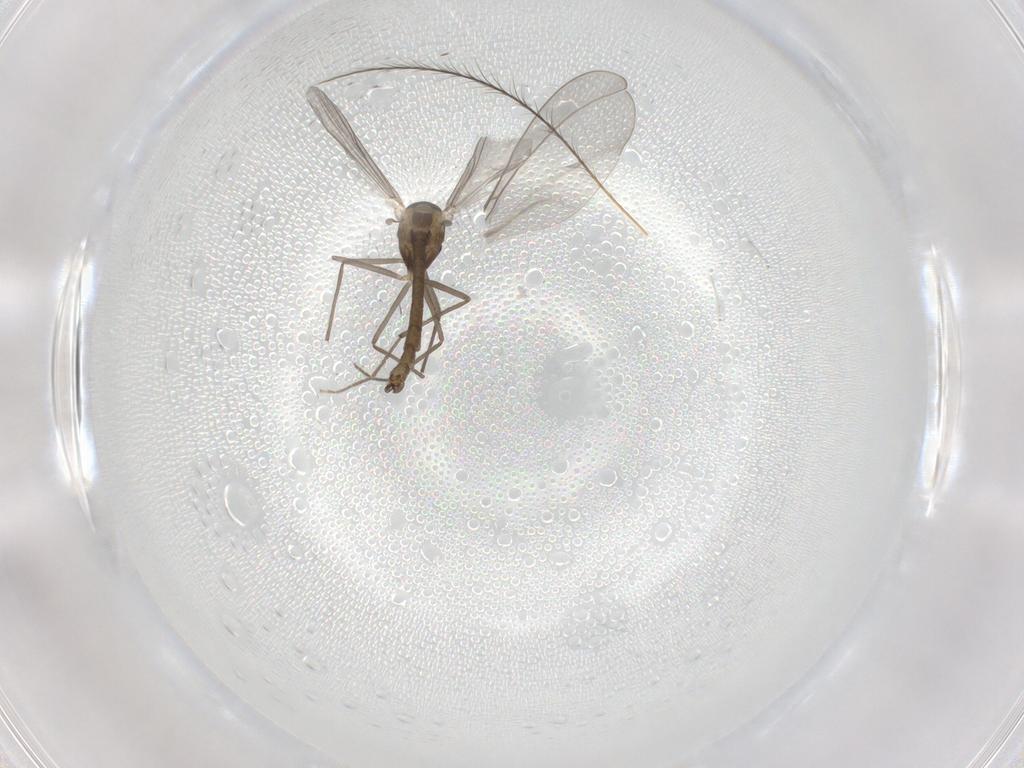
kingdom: Animalia
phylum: Arthropoda
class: Insecta
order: Diptera
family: Chironomidae
